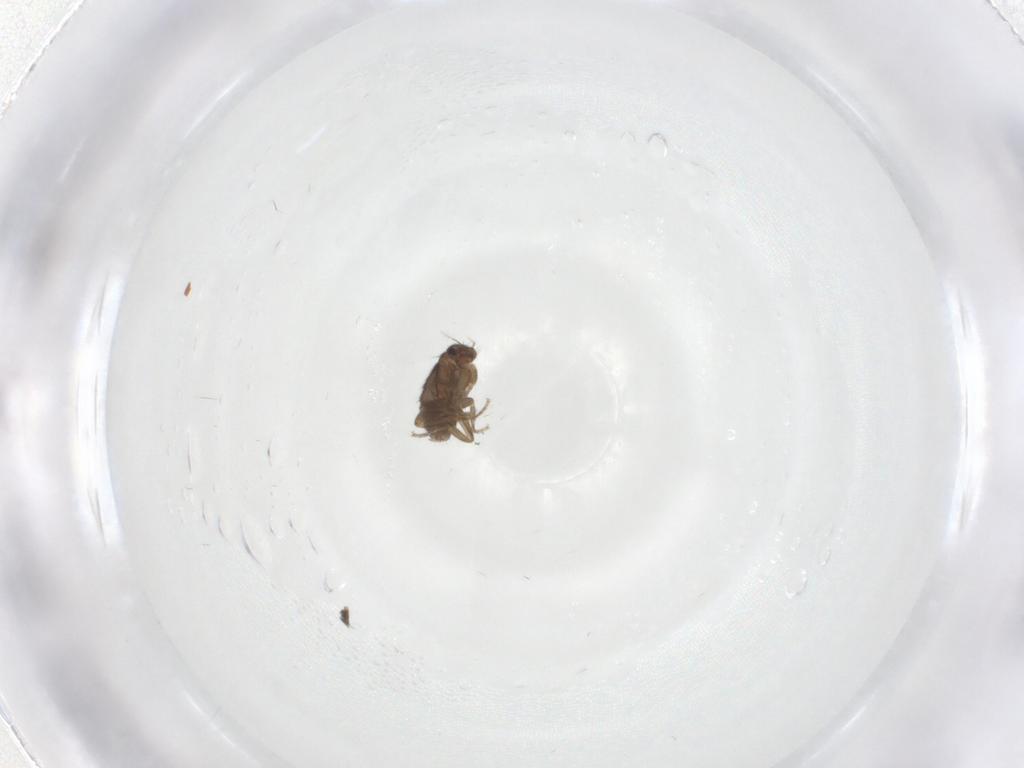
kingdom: Animalia
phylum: Arthropoda
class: Insecta
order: Diptera
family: Cecidomyiidae
